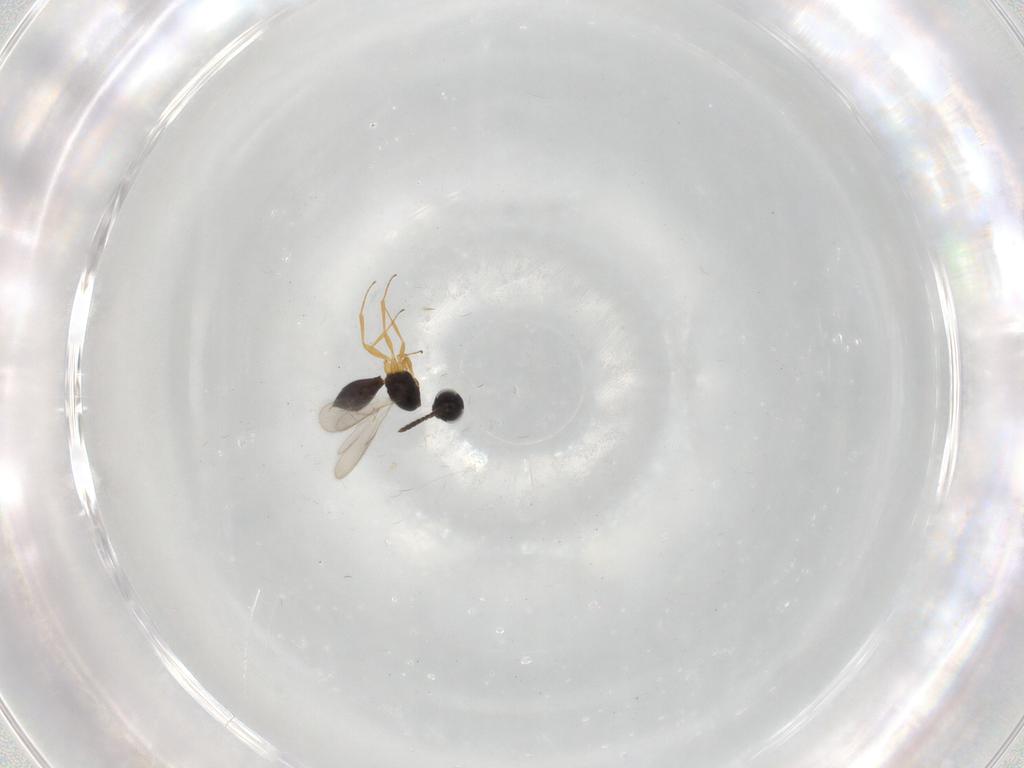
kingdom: Animalia
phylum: Arthropoda
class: Insecta
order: Hymenoptera
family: Scelionidae
